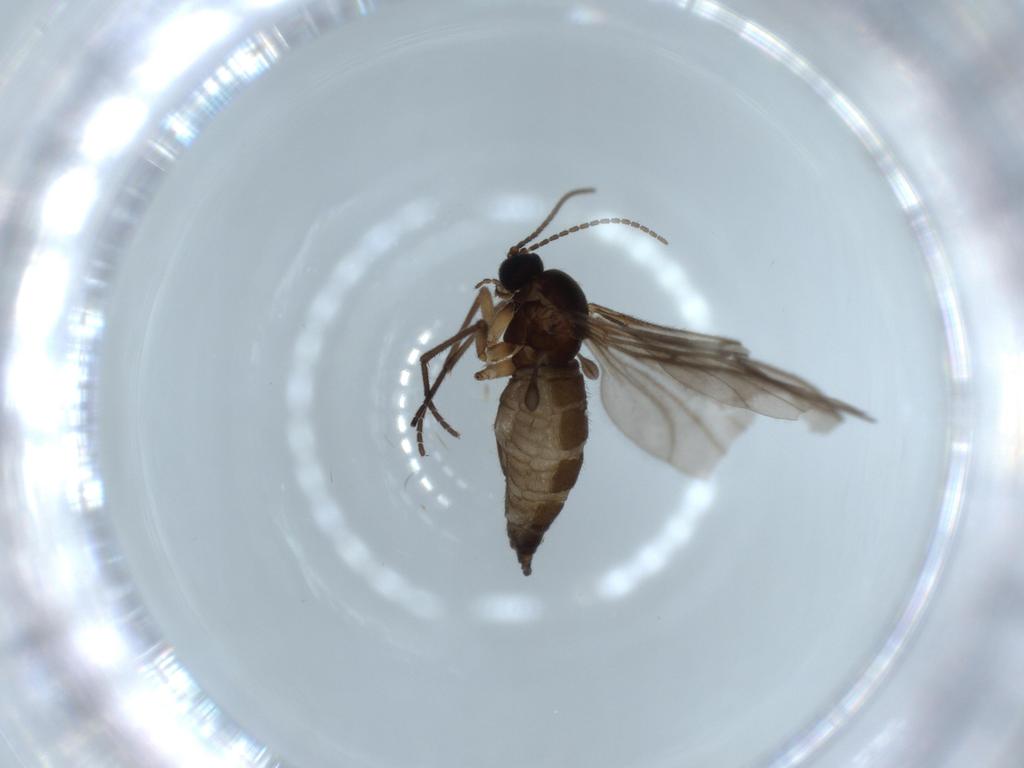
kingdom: Animalia
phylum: Arthropoda
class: Insecta
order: Diptera
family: Sciaridae
